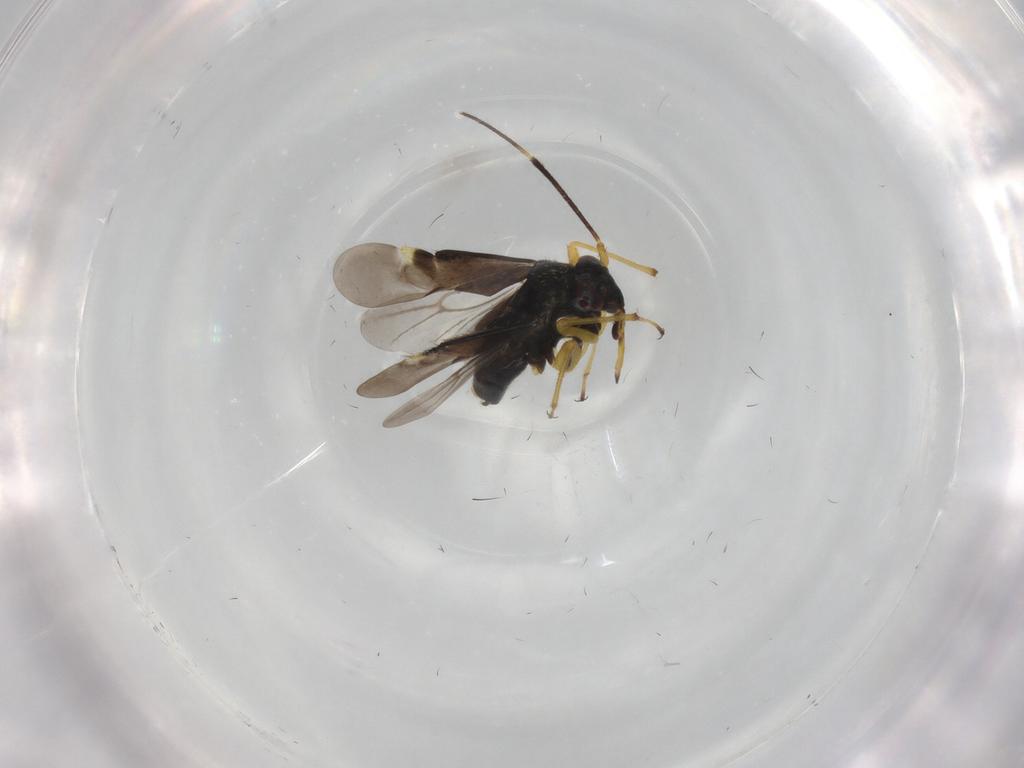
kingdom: Animalia
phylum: Arthropoda
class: Insecta
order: Hemiptera
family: Miridae
